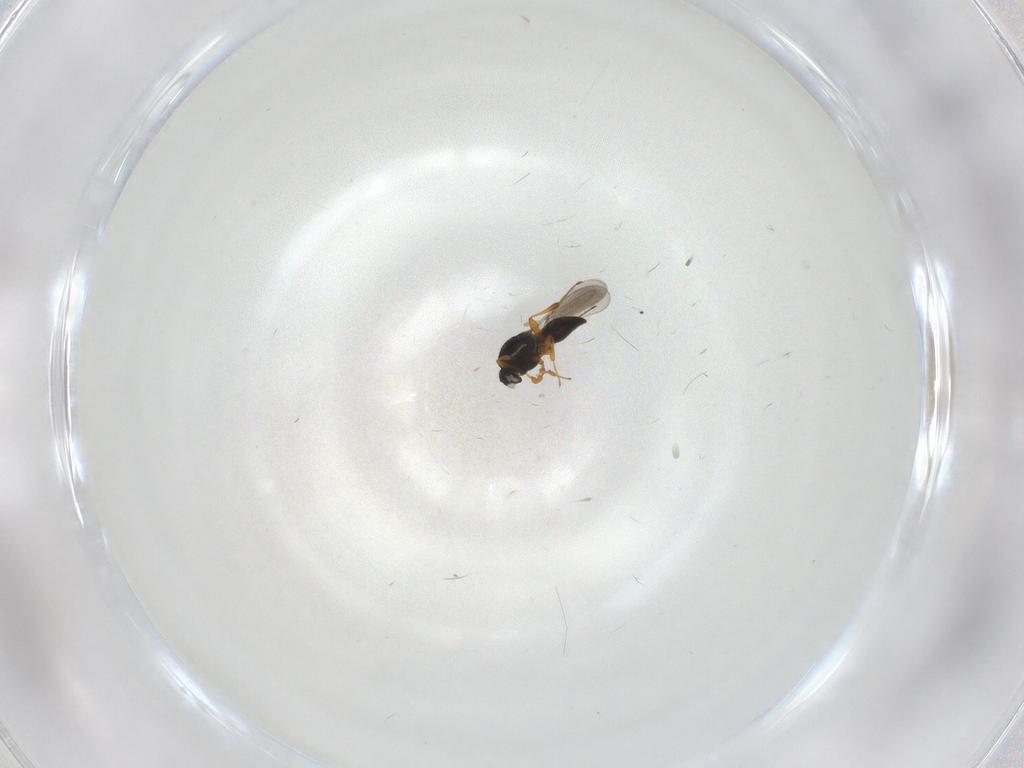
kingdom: Animalia
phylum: Arthropoda
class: Insecta
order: Hymenoptera
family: Platygastridae
